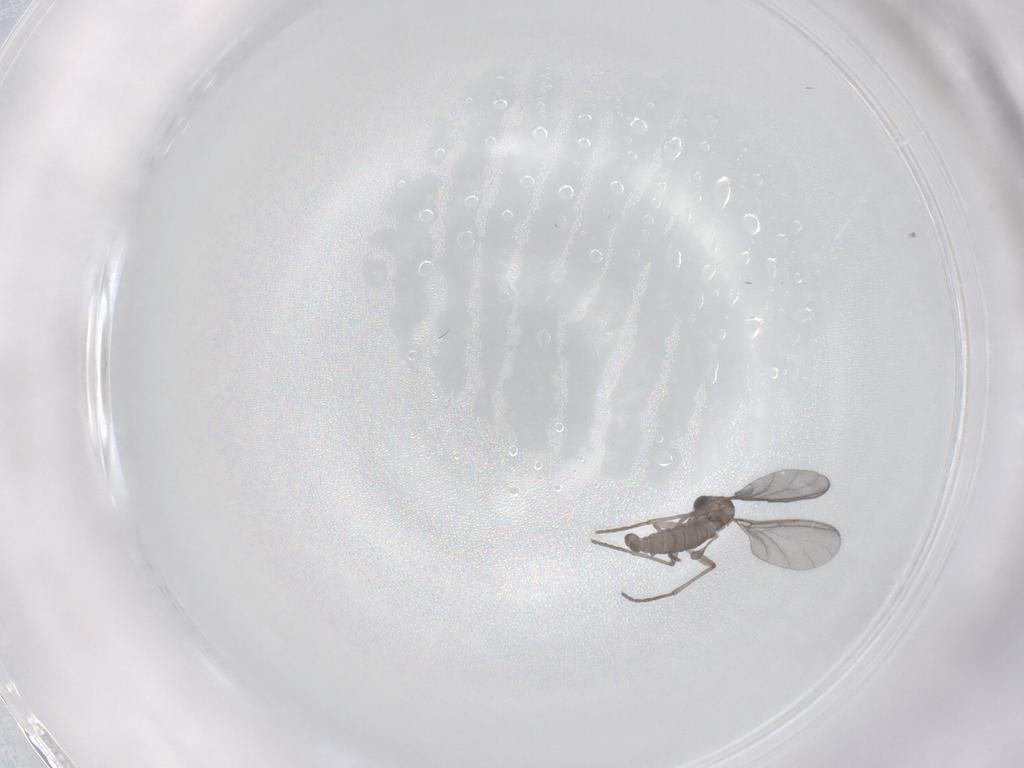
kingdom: Animalia
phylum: Arthropoda
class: Insecta
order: Diptera
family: Sciaridae
